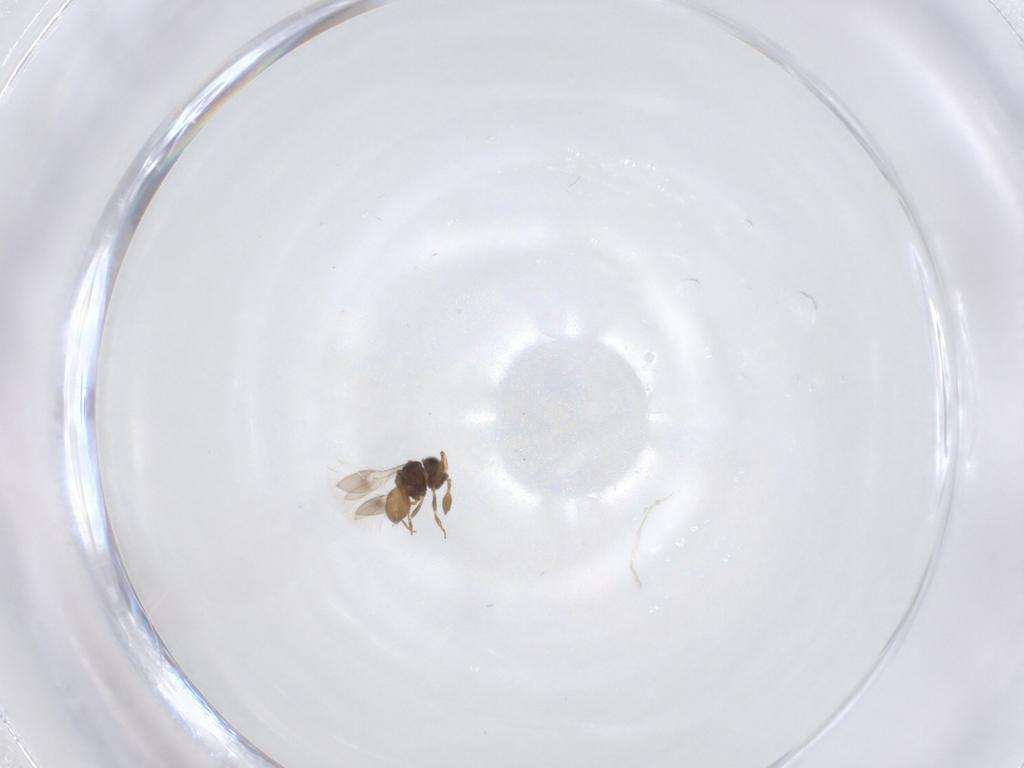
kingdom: Animalia
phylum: Arthropoda
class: Insecta
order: Hymenoptera
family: Scelionidae
